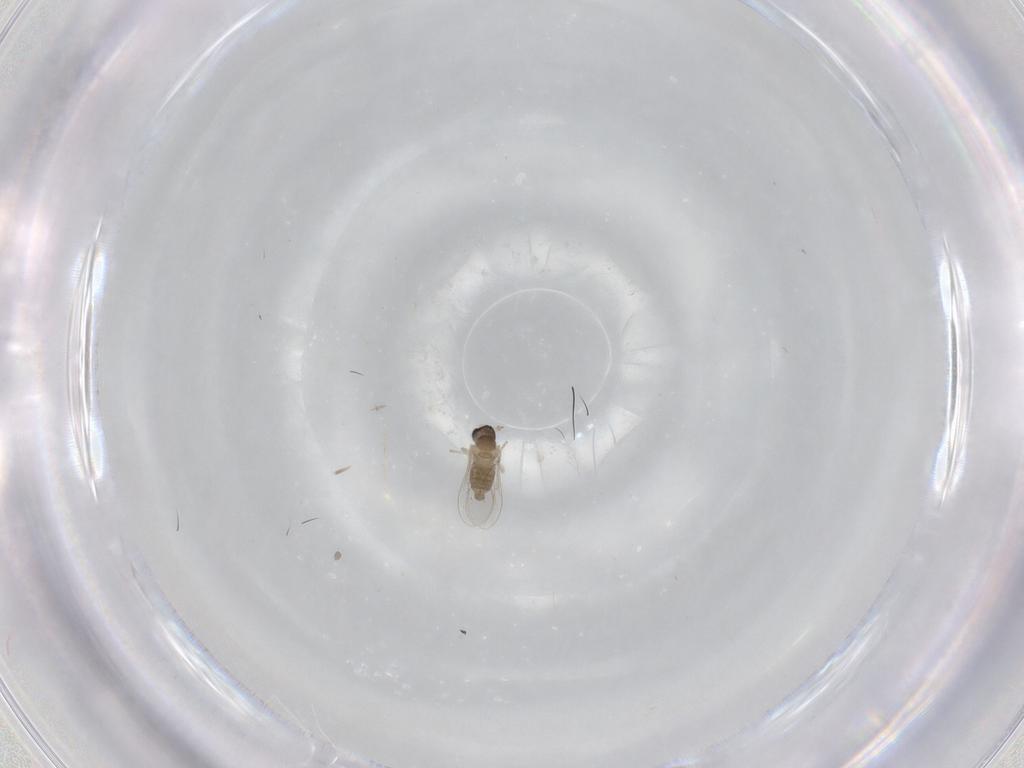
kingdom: Animalia
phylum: Arthropoda
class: Insecta
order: Diptera
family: Cecidomyiidae
